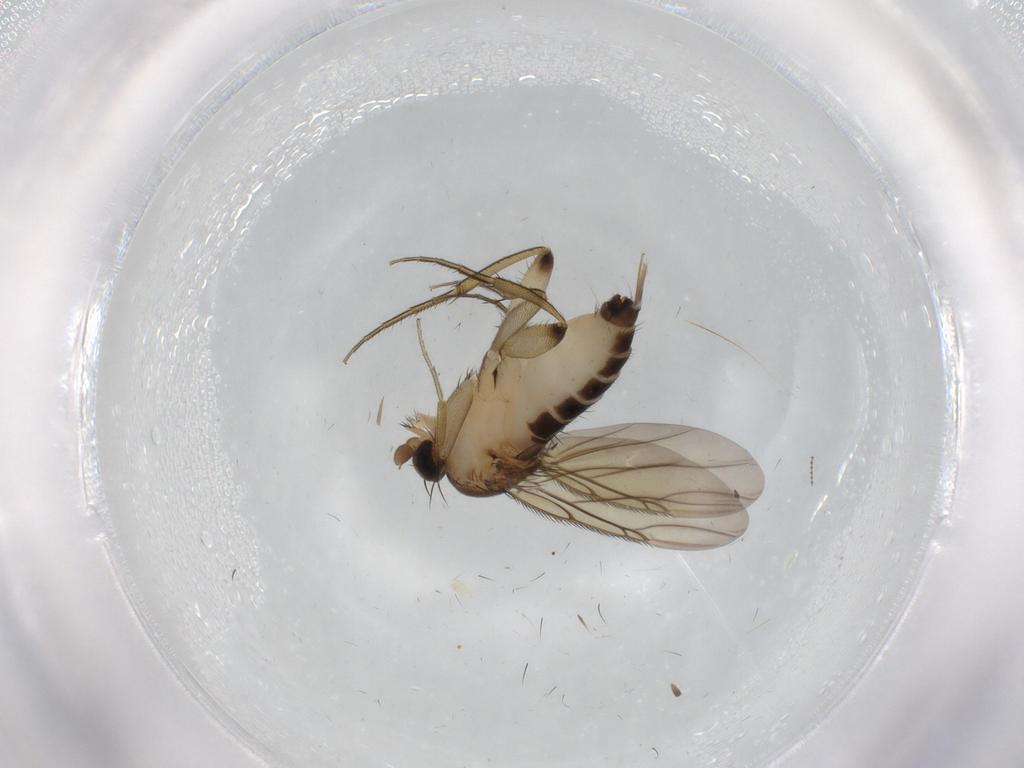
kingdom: Animalia
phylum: Arthropoda
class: Insecta
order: Diptera
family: Phoridae
